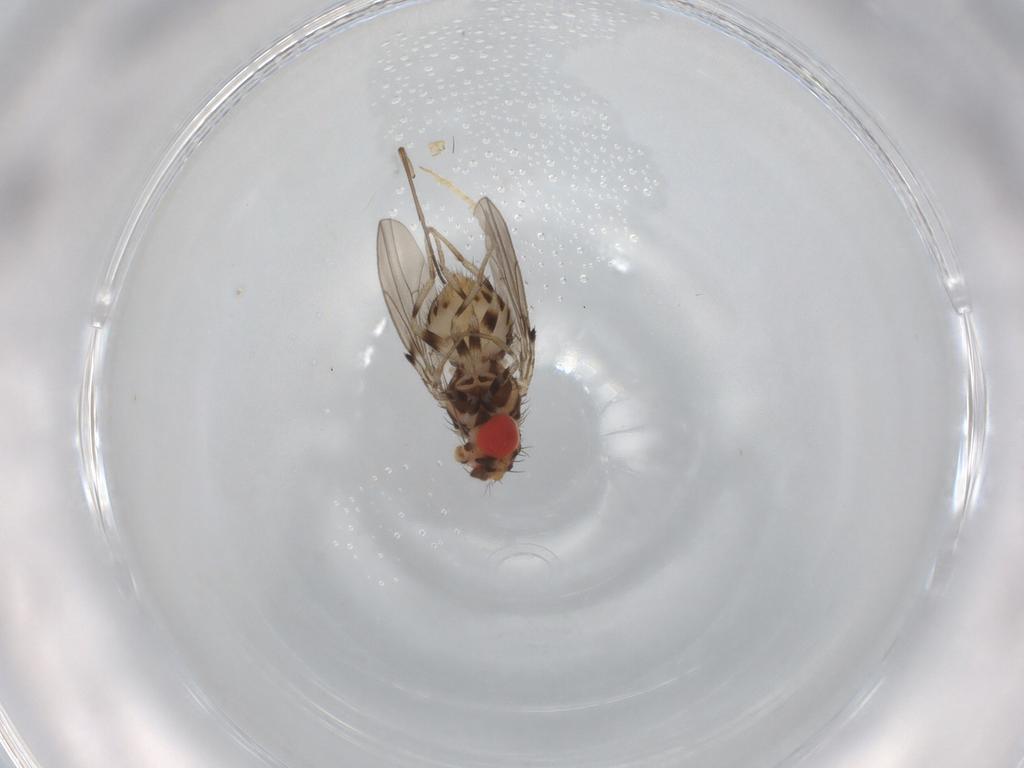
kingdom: Animalia
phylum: Arthropoda
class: Insecta
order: Diptera
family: Drosophilidae
